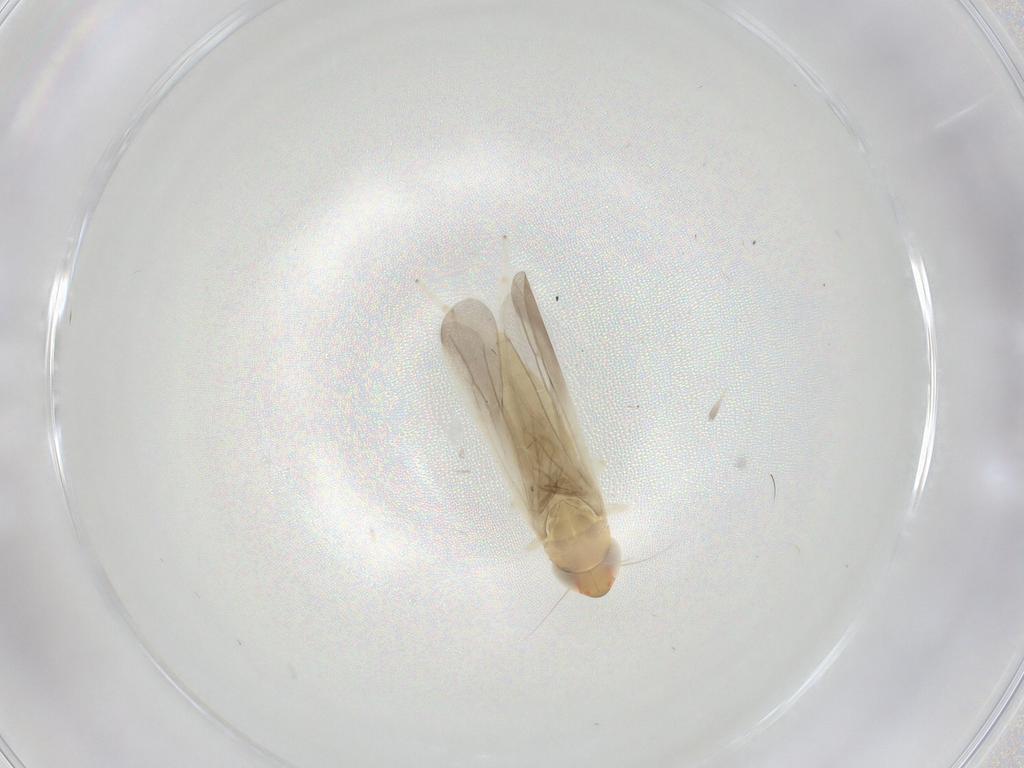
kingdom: Animalia
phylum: Arthropoda
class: Insecta
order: Hemiptera
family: Cicadellidae
